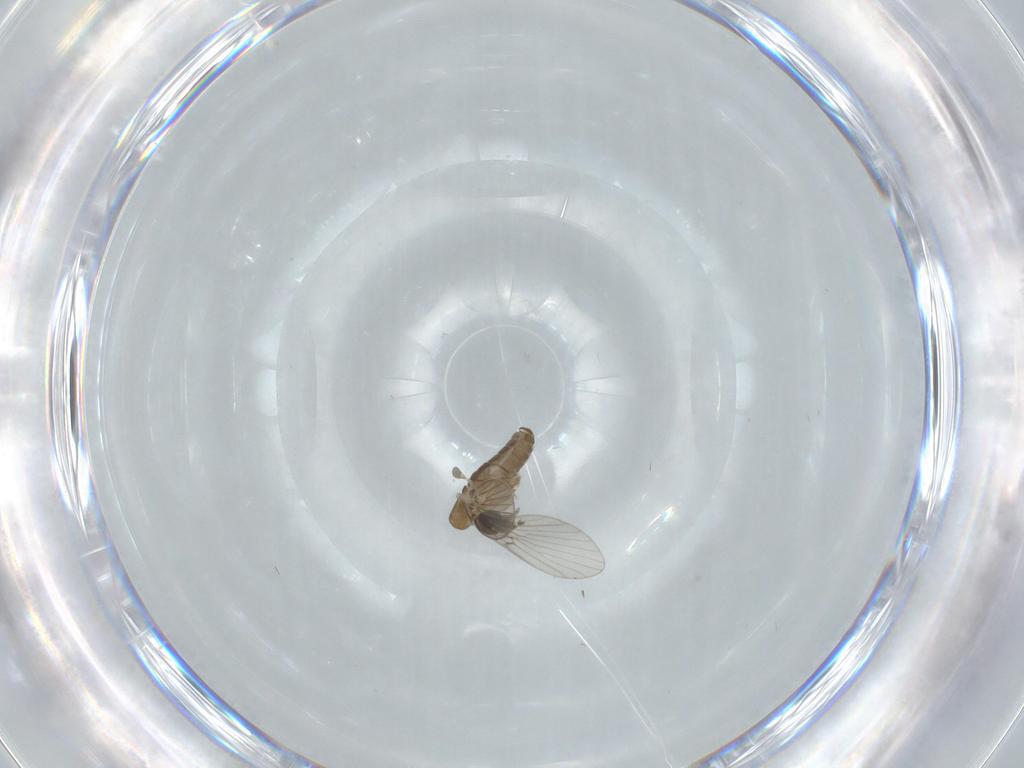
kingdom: Animalia
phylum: Arthropoda
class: Insecta
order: Diptera
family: Psychodidae
